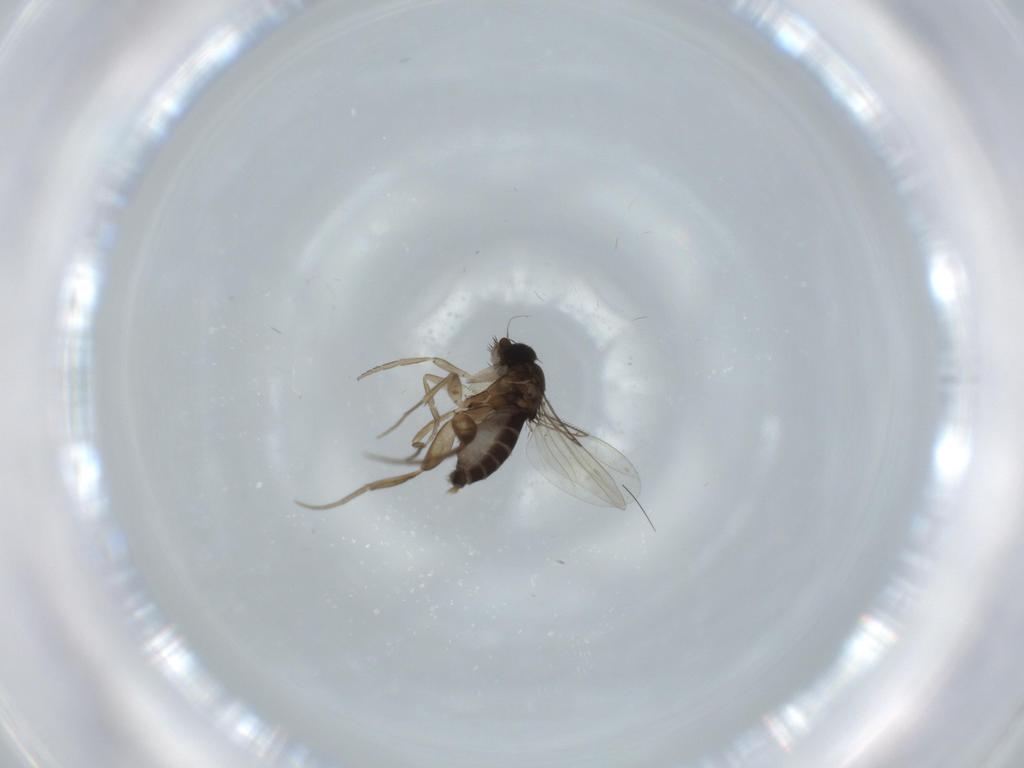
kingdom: Animalia
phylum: Arthropoda
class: Insecta
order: Diptera
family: Phoridae
